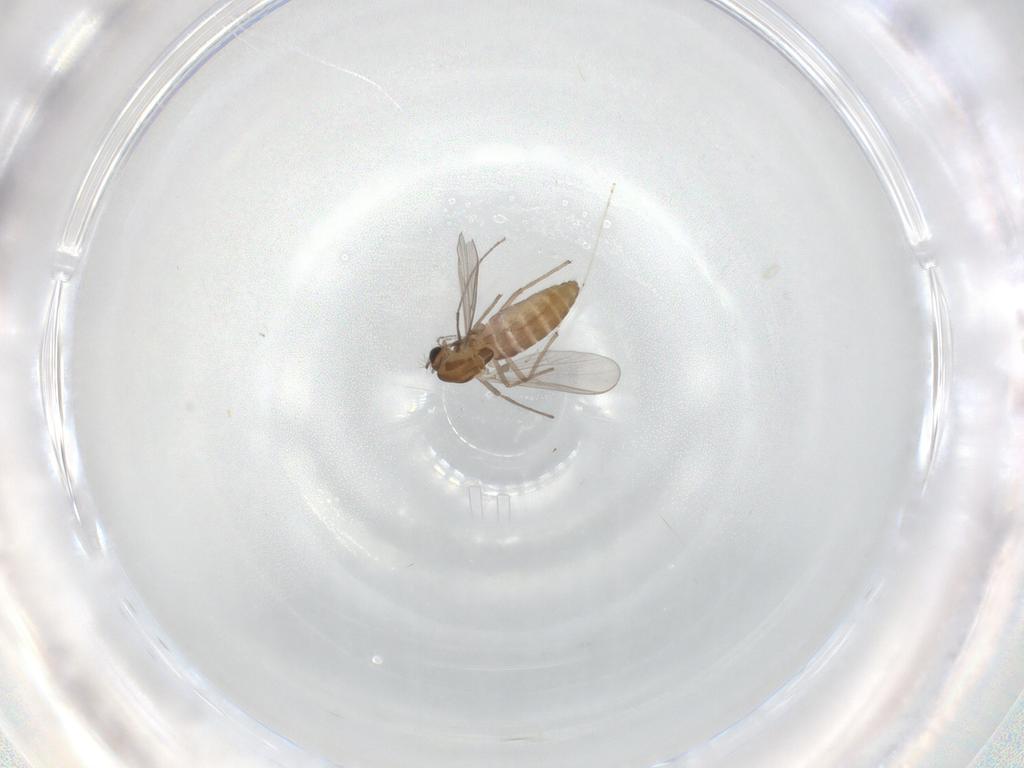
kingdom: Animalia
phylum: Arthropoda
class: Insecta
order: Diptera
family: Chironomidae
